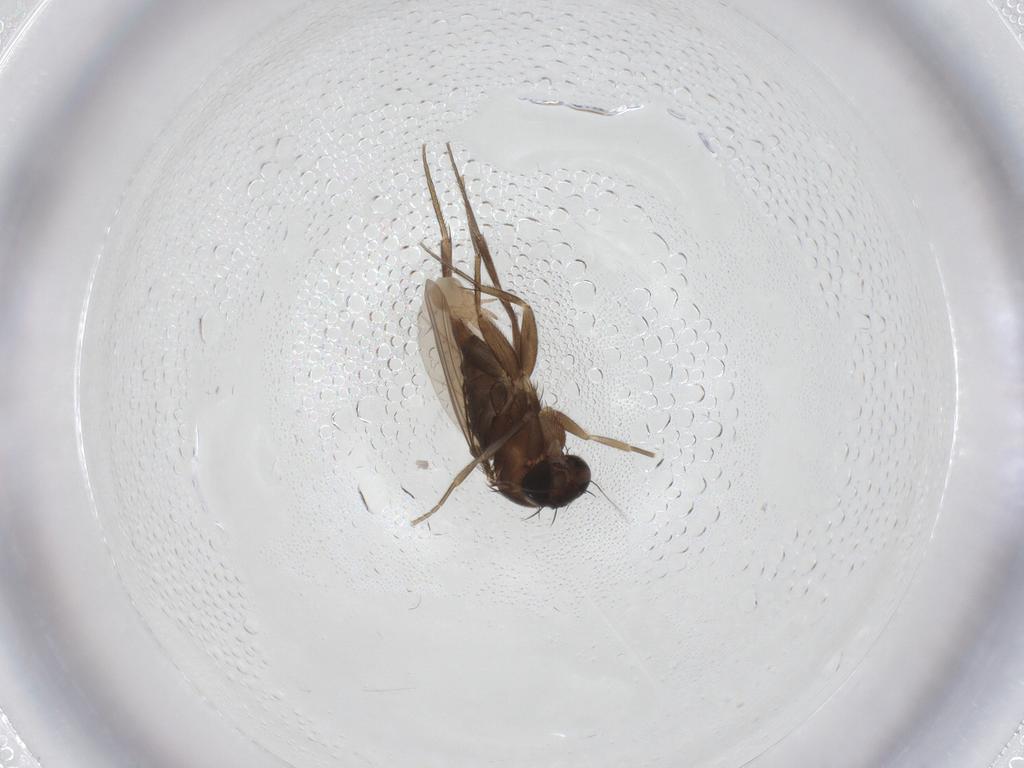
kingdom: Animalia
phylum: Arthropoda
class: Insecta
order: Diptera
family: Phoridae
